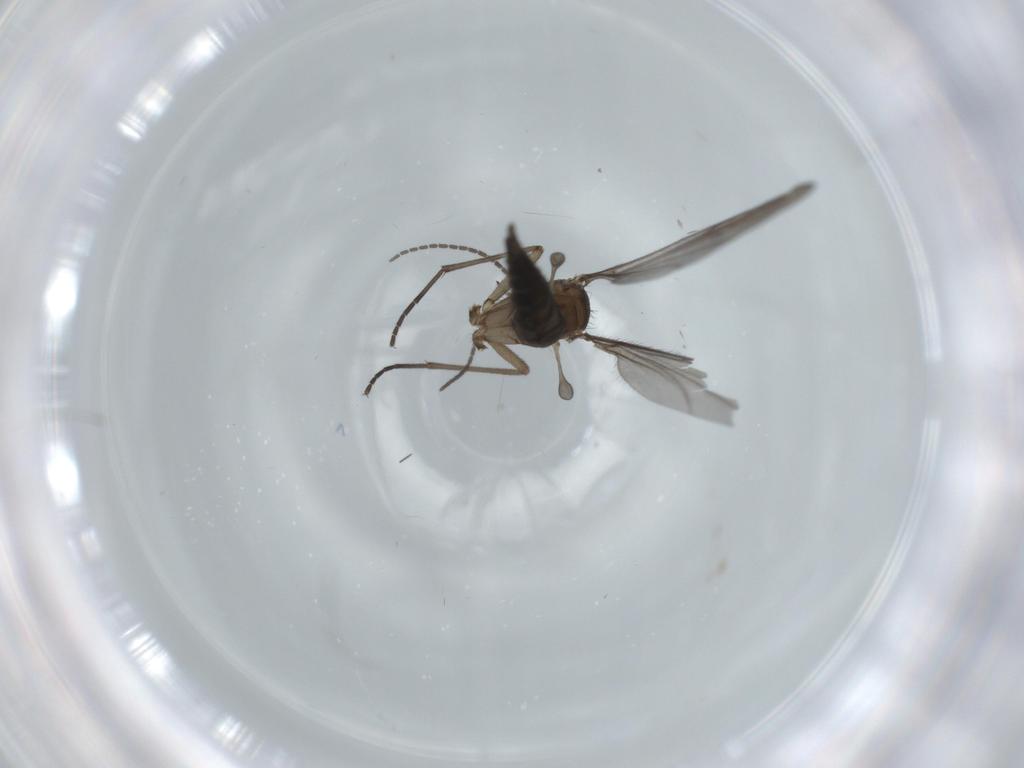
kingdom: Animalia
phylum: Arthropoda
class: Insecta
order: Diptera
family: Sciaridae
